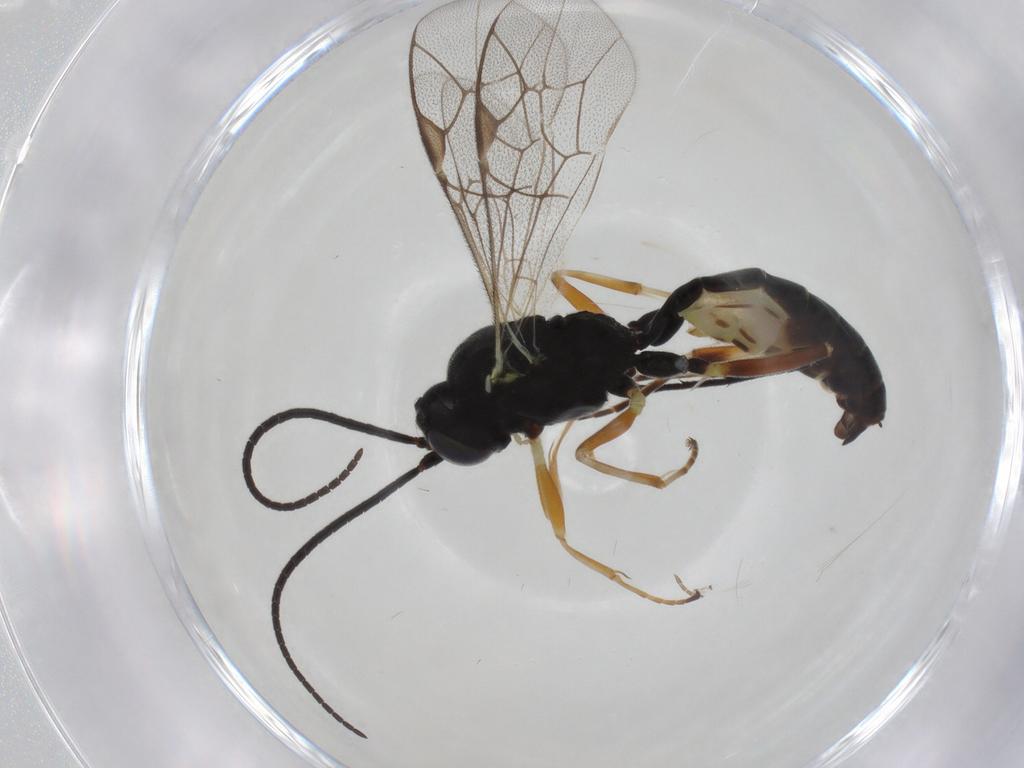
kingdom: Animalia
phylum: Arthropoda
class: Insecta
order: Hymenoptera
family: Ichneumonidae
